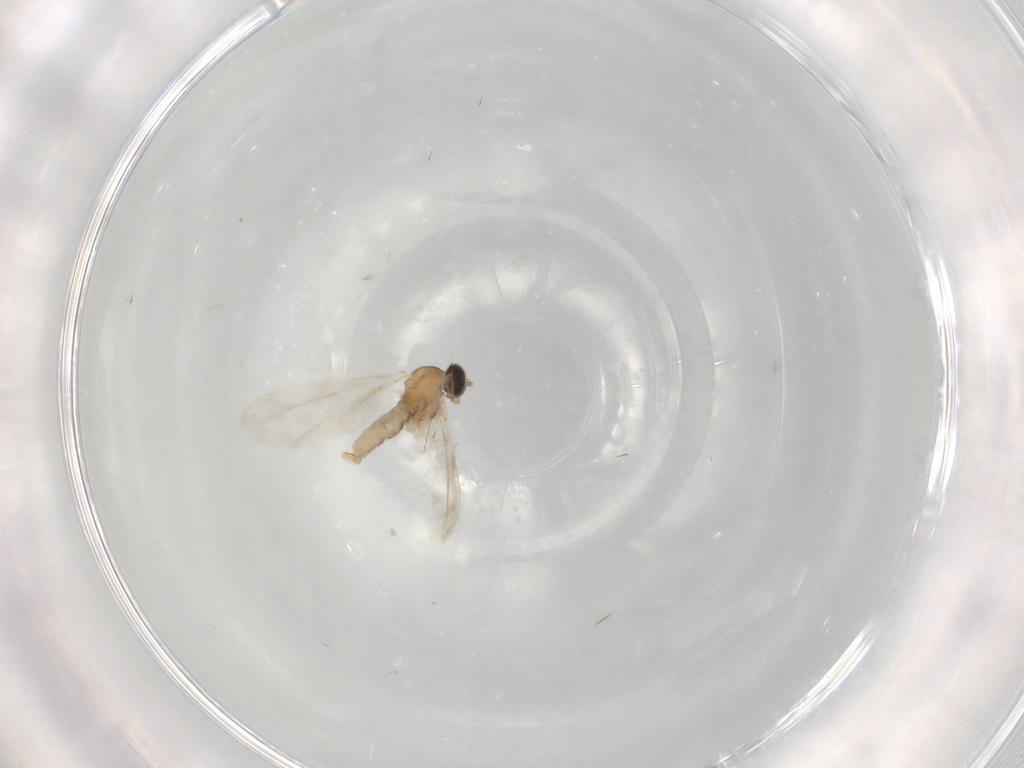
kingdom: Animalia
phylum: Arthropoda
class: Insecta
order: Diptera
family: Cecidomyiidae
